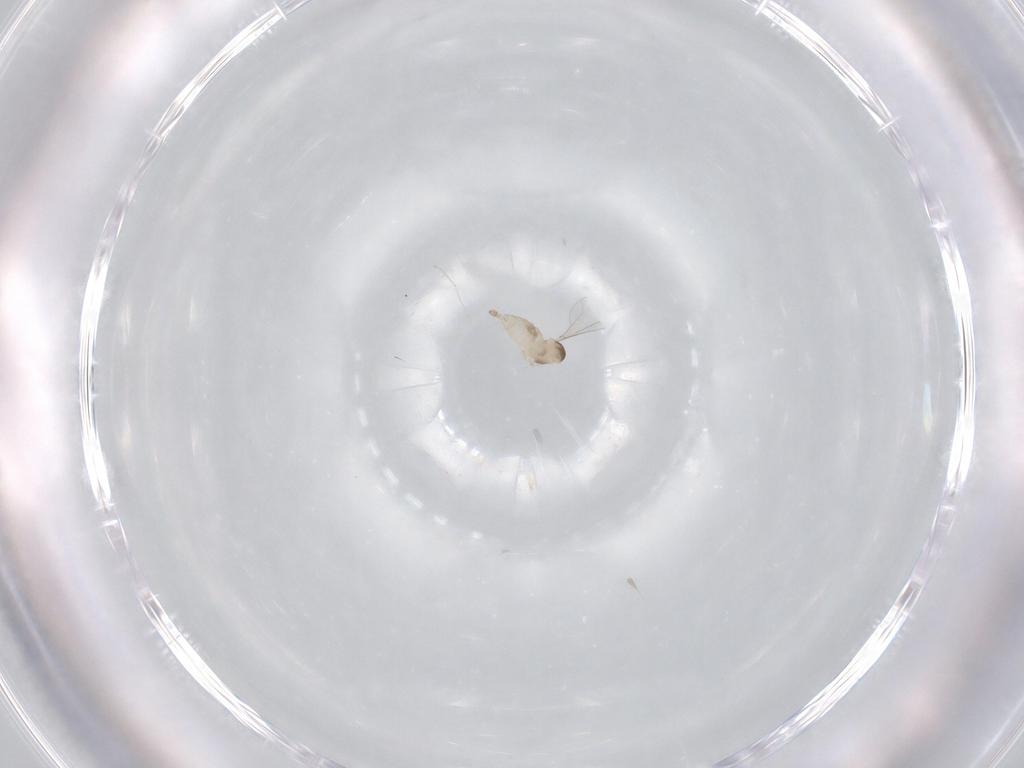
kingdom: Animalia
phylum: Arthropoda
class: Insecta
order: Diptera
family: Cecidomyiidae
